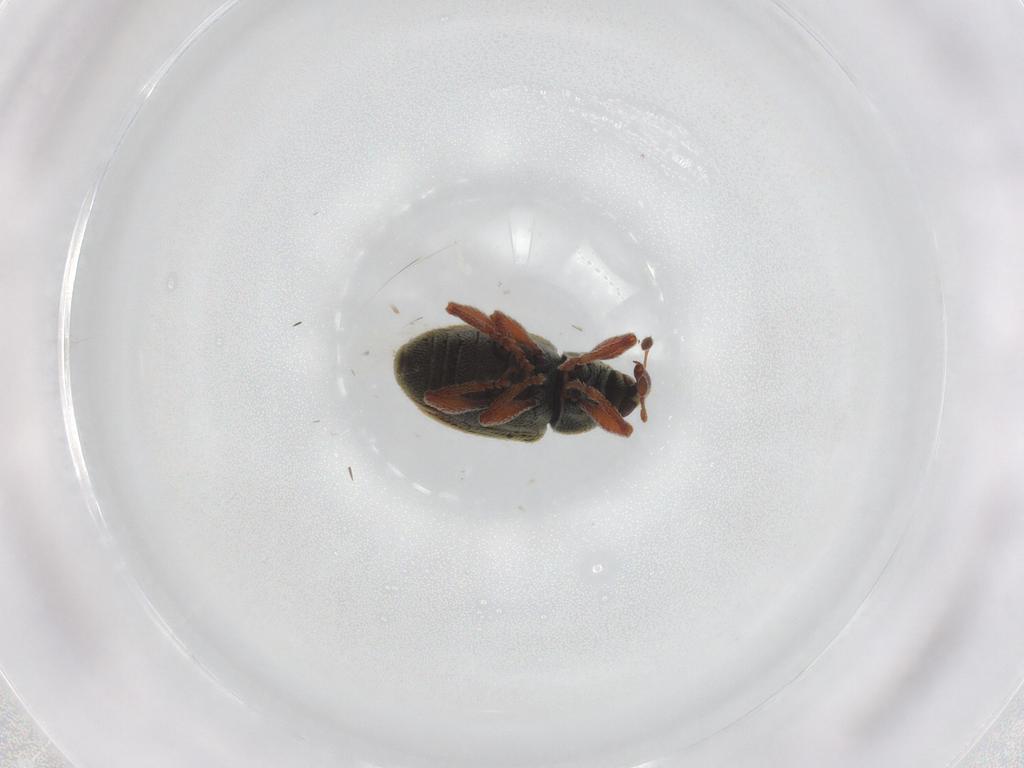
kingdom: Animalia
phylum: Arthropoda
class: Insecta
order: Coleoptera
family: Curculionidae
